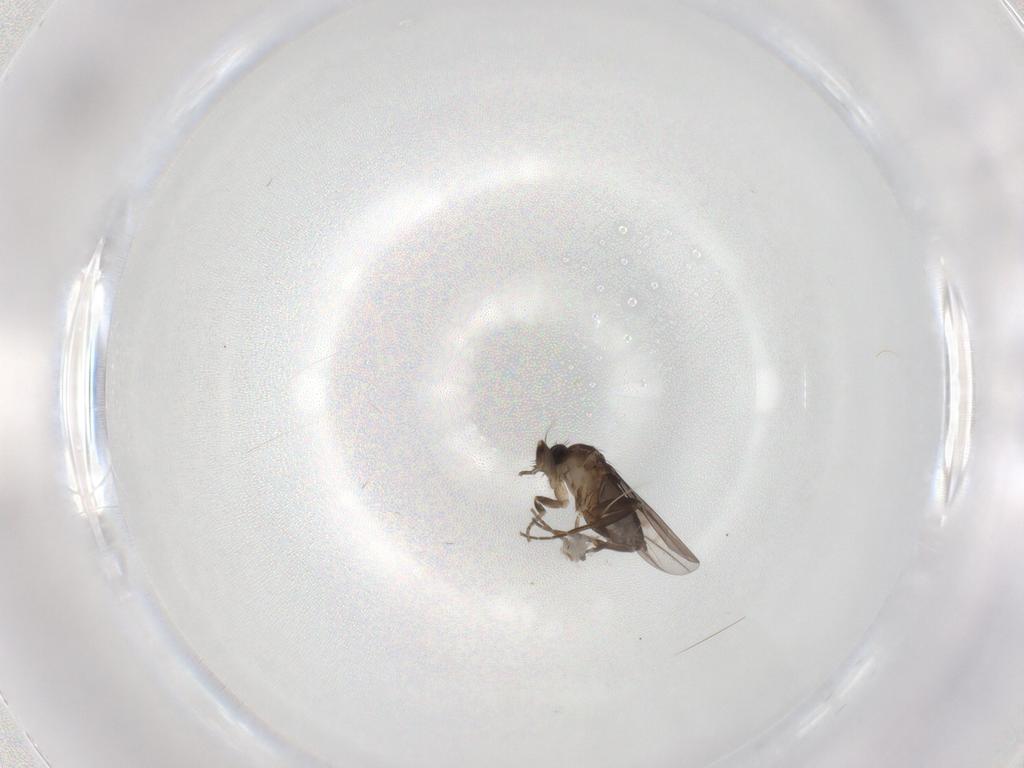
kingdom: Animalia
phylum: Arthropoda
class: Insecta
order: Diptera
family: Phoridae
